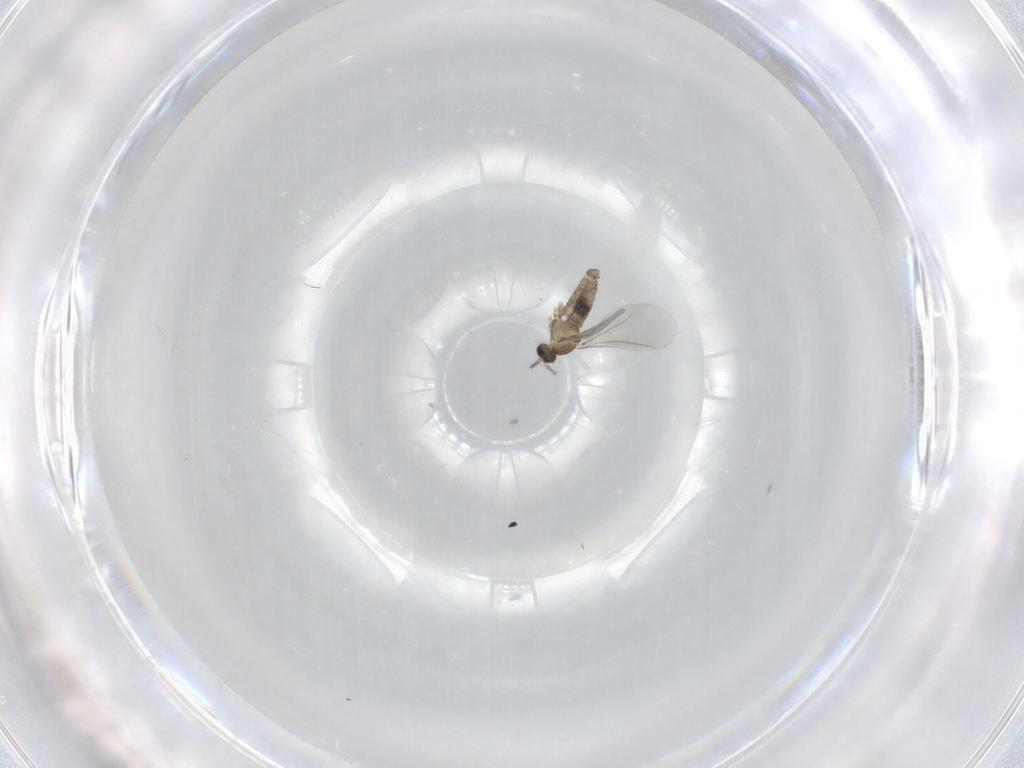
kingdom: Animalia
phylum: Arthropoda
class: Insecta
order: Diptera
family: Cecidomyiidae
